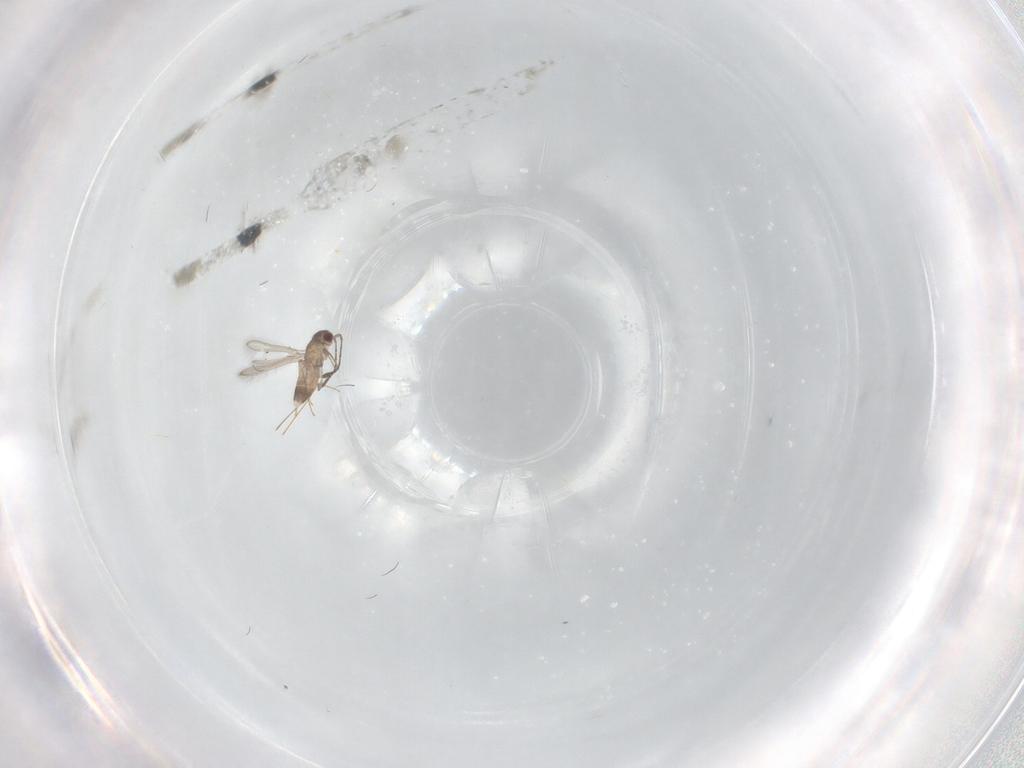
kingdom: Animalia
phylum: Arthropoda
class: Insecta
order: Hymenoptera
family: Mymaridae
